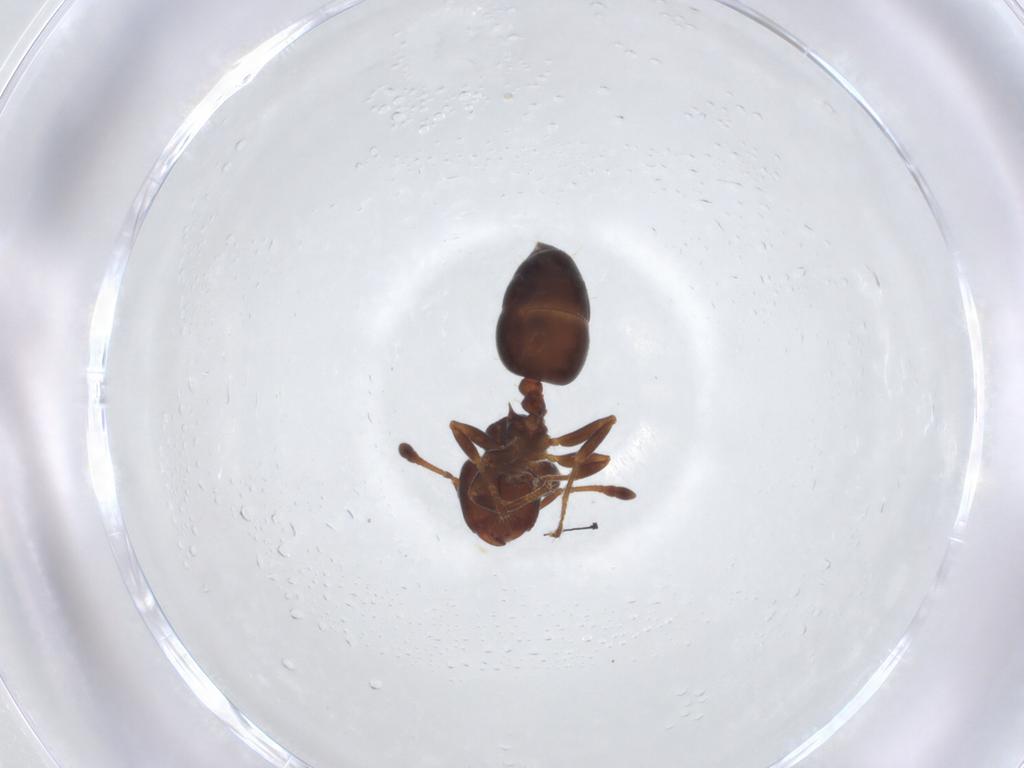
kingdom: Animalia
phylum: Arthropoda
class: Insecta
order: Hymenoptera
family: Formicidae
